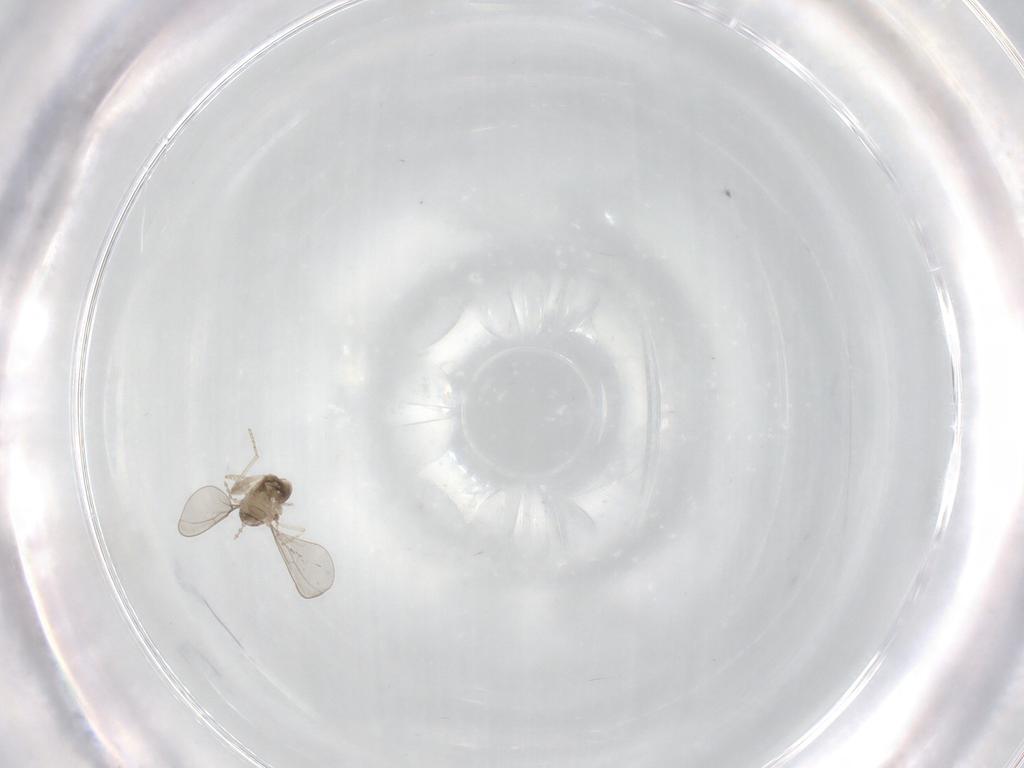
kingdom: Animalia
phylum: Arthropoda
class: Insecta
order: Diptera
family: Cecidomyiidae
